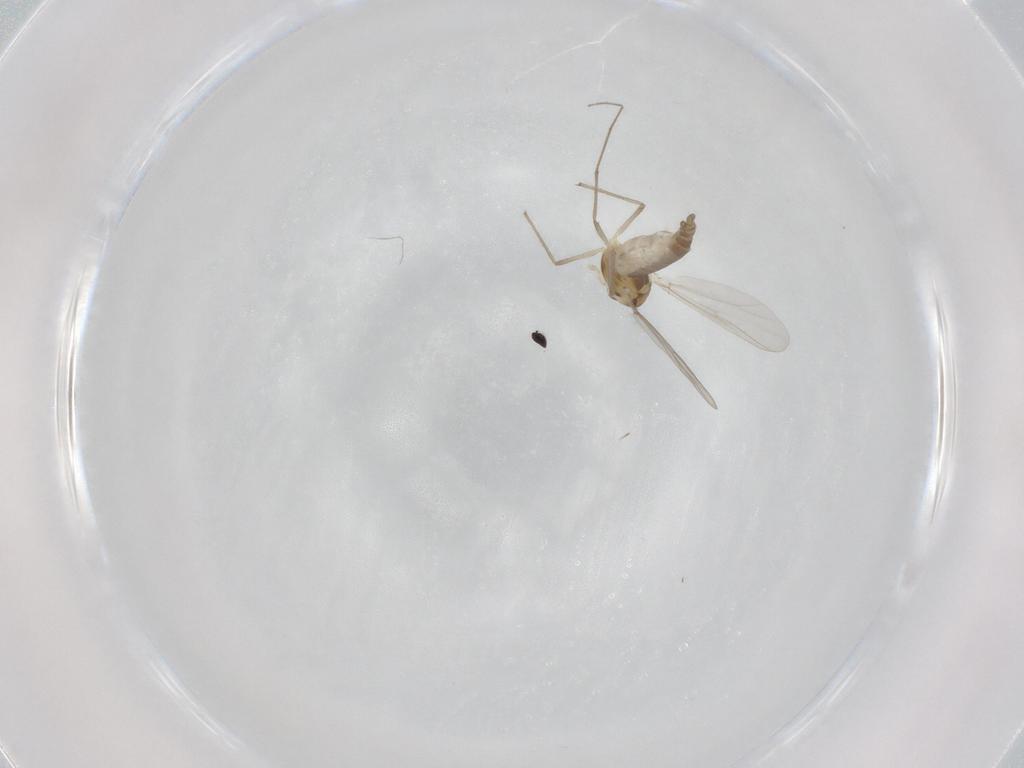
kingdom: Animalia
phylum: Arthropoda
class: Insecta
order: Diptera
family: Chironomidae
